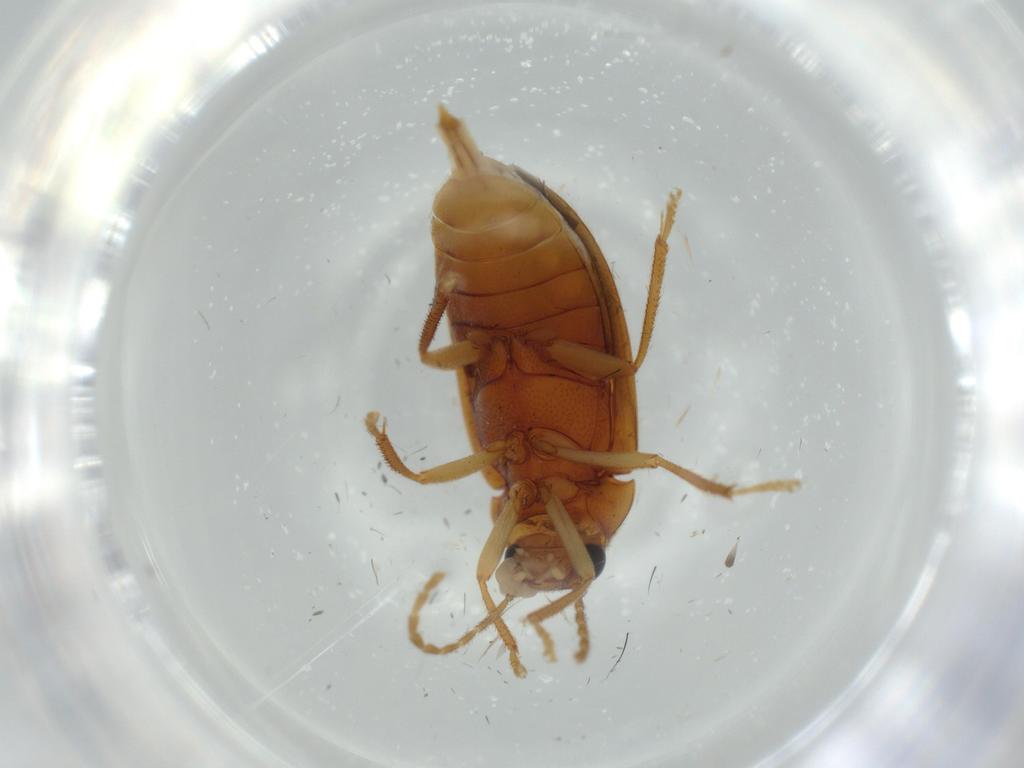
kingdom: Animalia
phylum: Arthropoda
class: Insecta
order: Coleoptera
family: Ptilodactylidae
